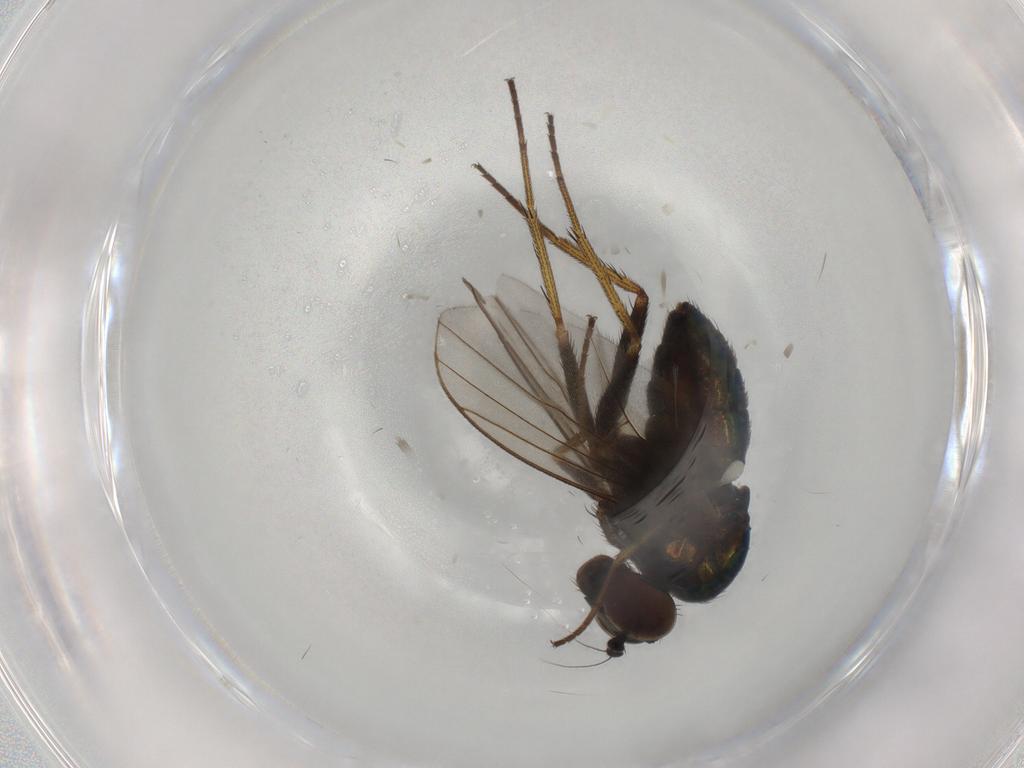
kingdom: Animalia
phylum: Arthropoda
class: Insecta
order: Diptera
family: Dolichopodidae
